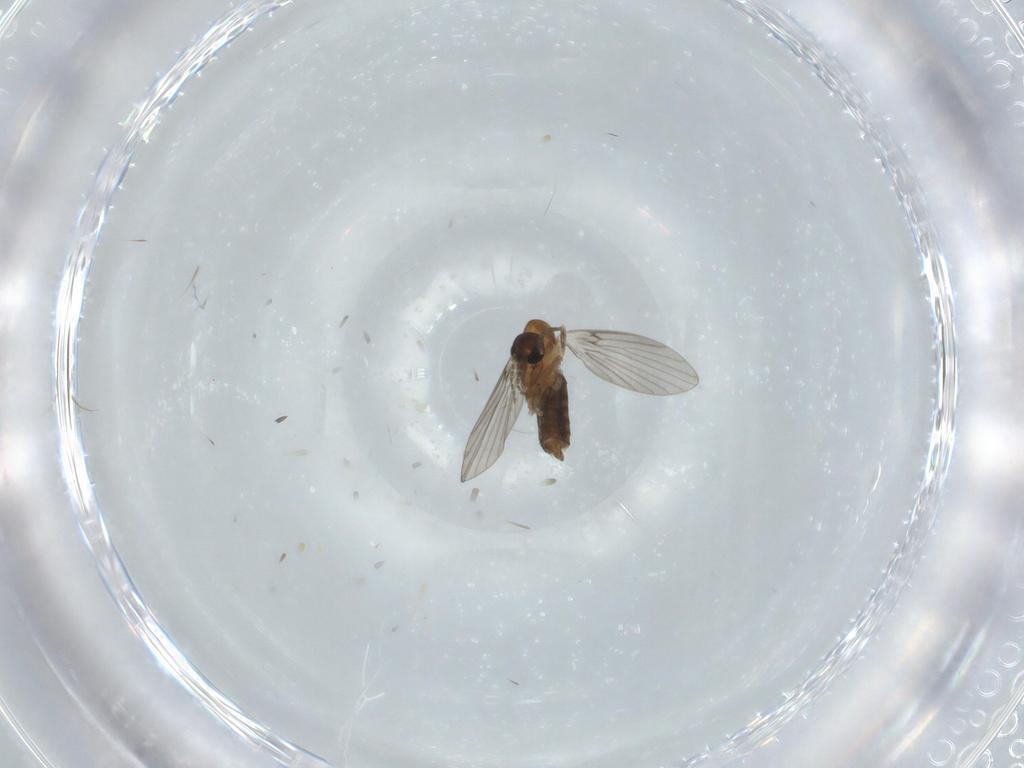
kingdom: Animalia
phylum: Arthropoda
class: Insecta
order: Diptera
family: Psychodidae
